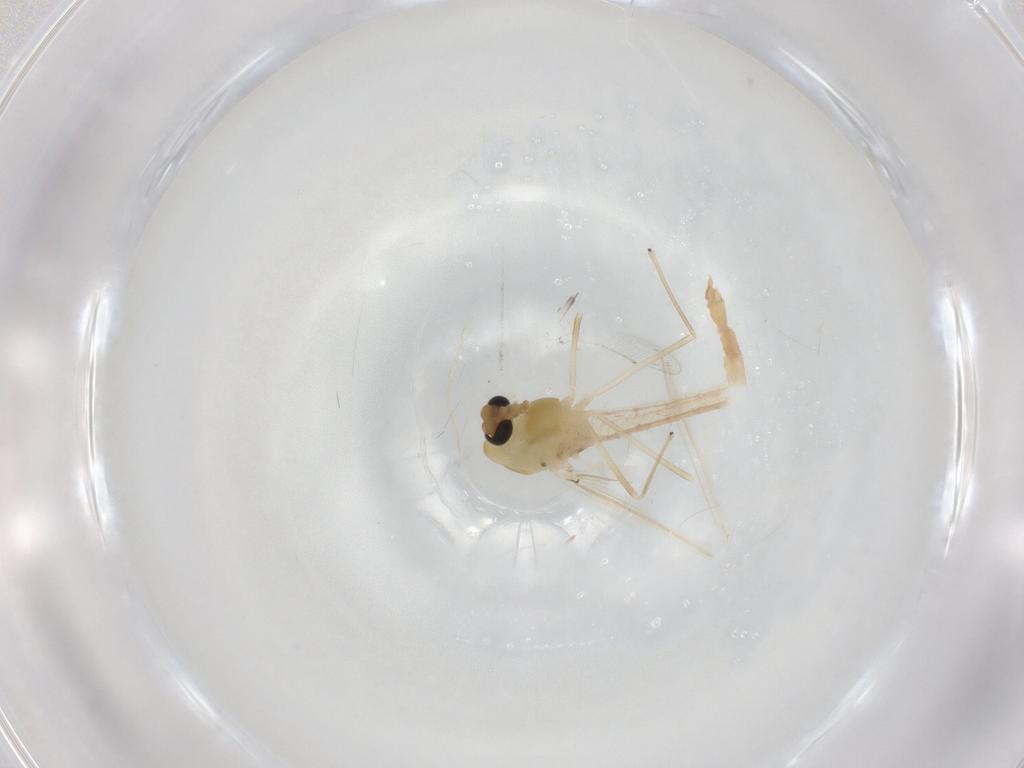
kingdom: Animalia
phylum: Arthropoda
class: Insecta
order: Diptera
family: Chironomidae
